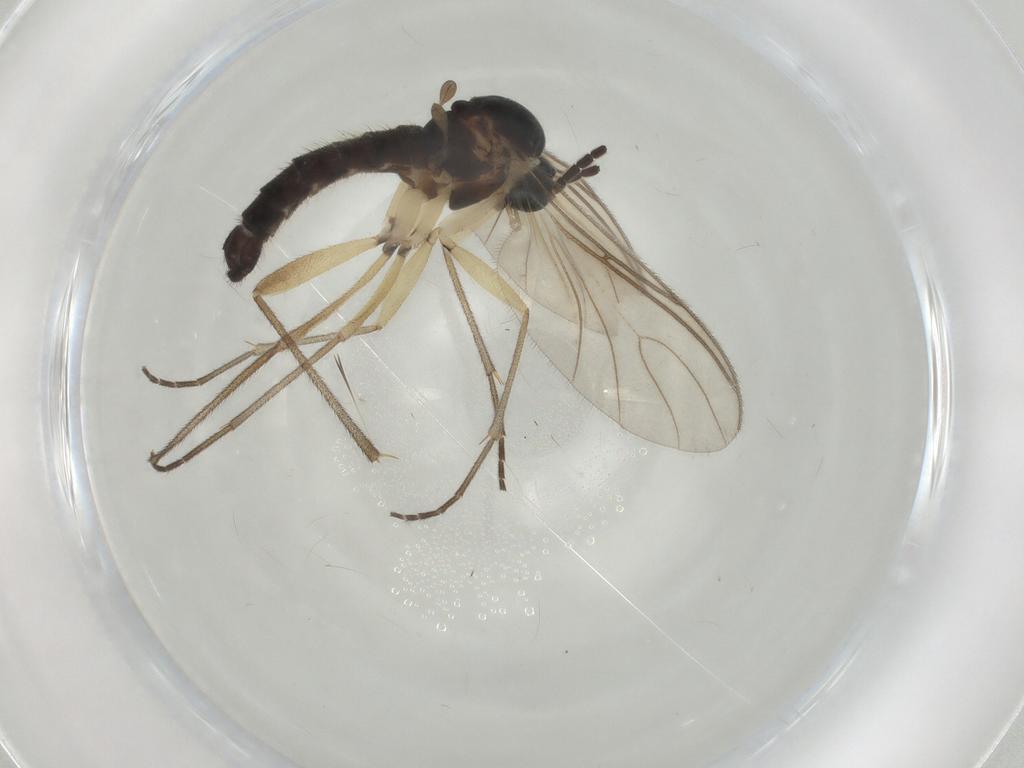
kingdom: Animalia
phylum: Arthropoda
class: Insecta
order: Diptera
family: Sciaridae
